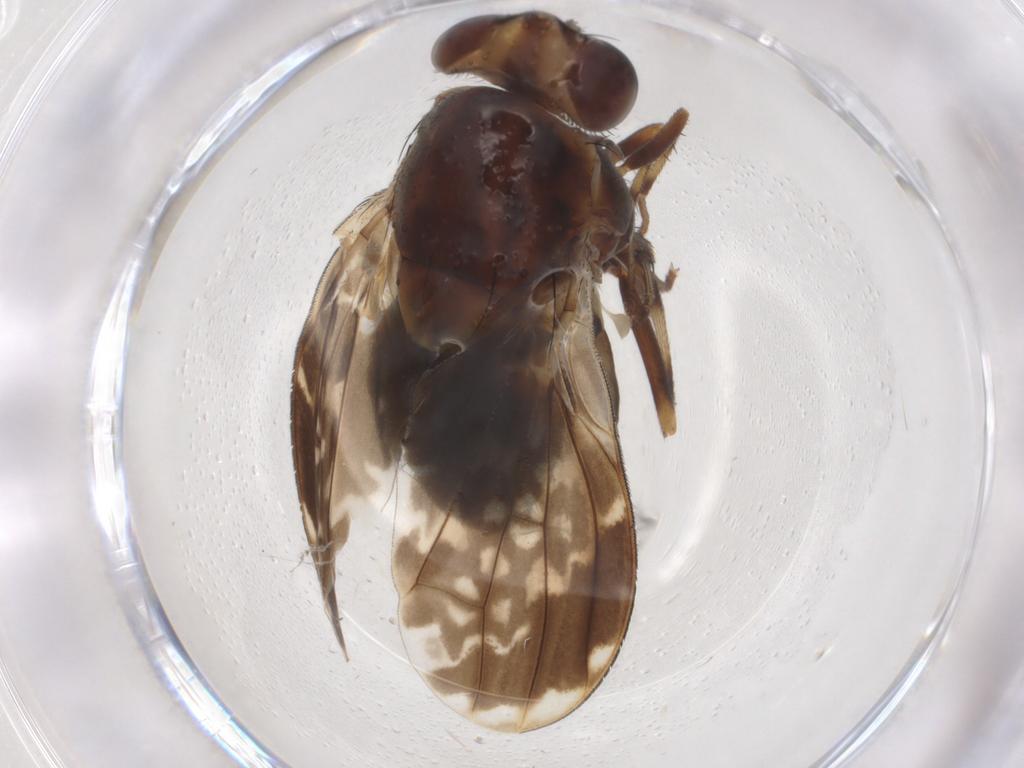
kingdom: Animalia
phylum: Arthropoda
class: Insecta
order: Diptera
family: Lauxaniidae
